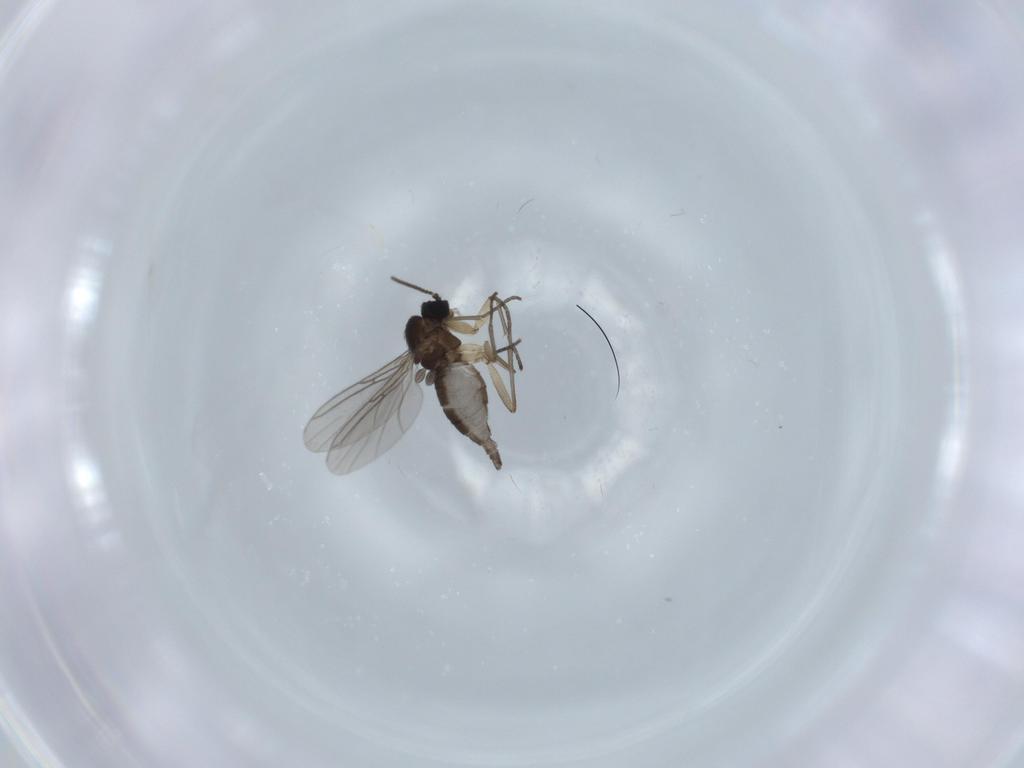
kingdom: Animalia
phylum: Arthropoda
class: Insecta
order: Diptera
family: Sciaridae
